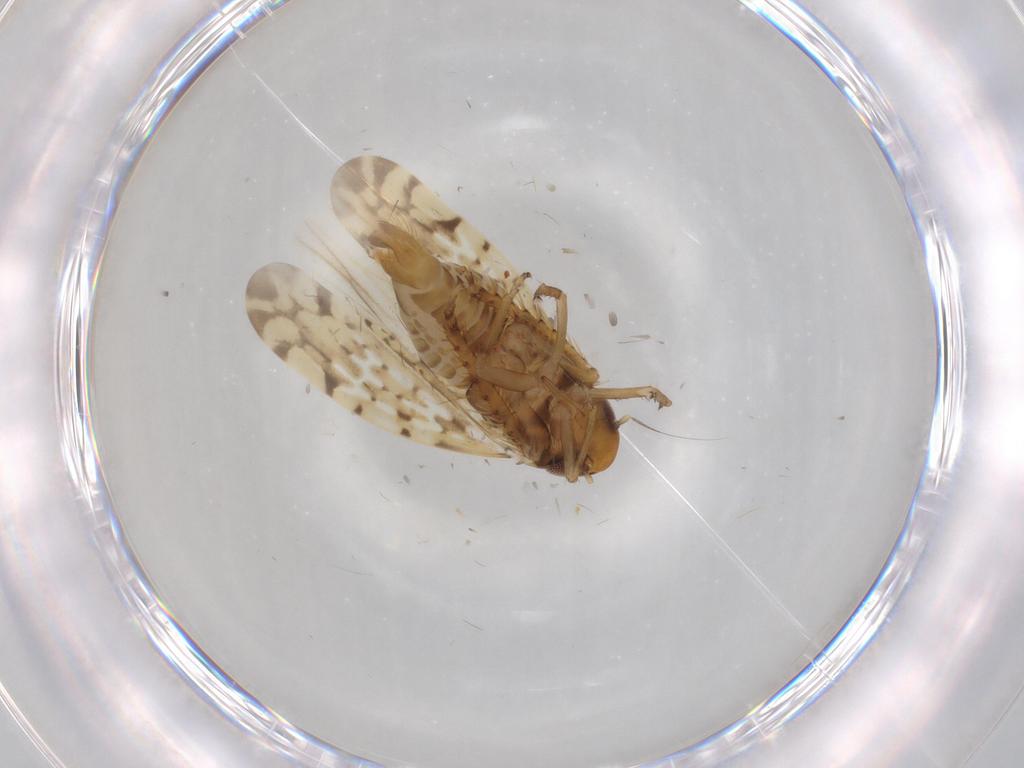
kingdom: Animalia
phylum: Arthropoda
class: Insecta
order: Hemiptera
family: Cicadellidae
